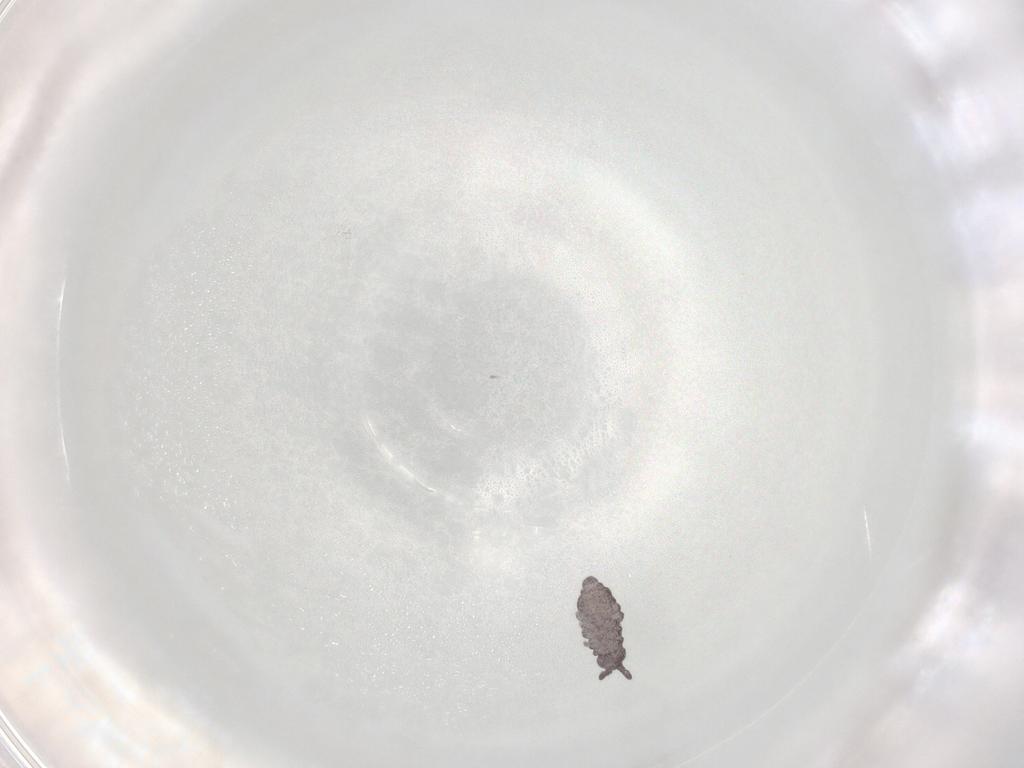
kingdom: Animalia
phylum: Arthropoda
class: Collembola
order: Poduromorpha
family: Hypogastruridae
